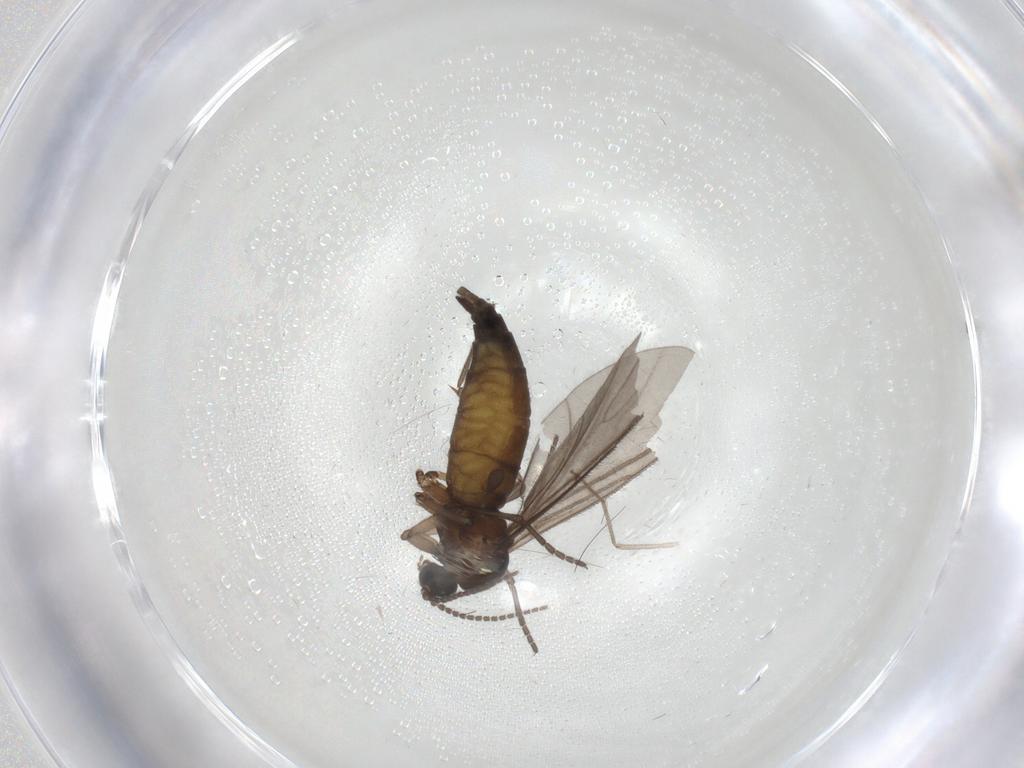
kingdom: Animalia
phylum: Arthropoda
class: Insecta
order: Diptera
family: Sciaridae
